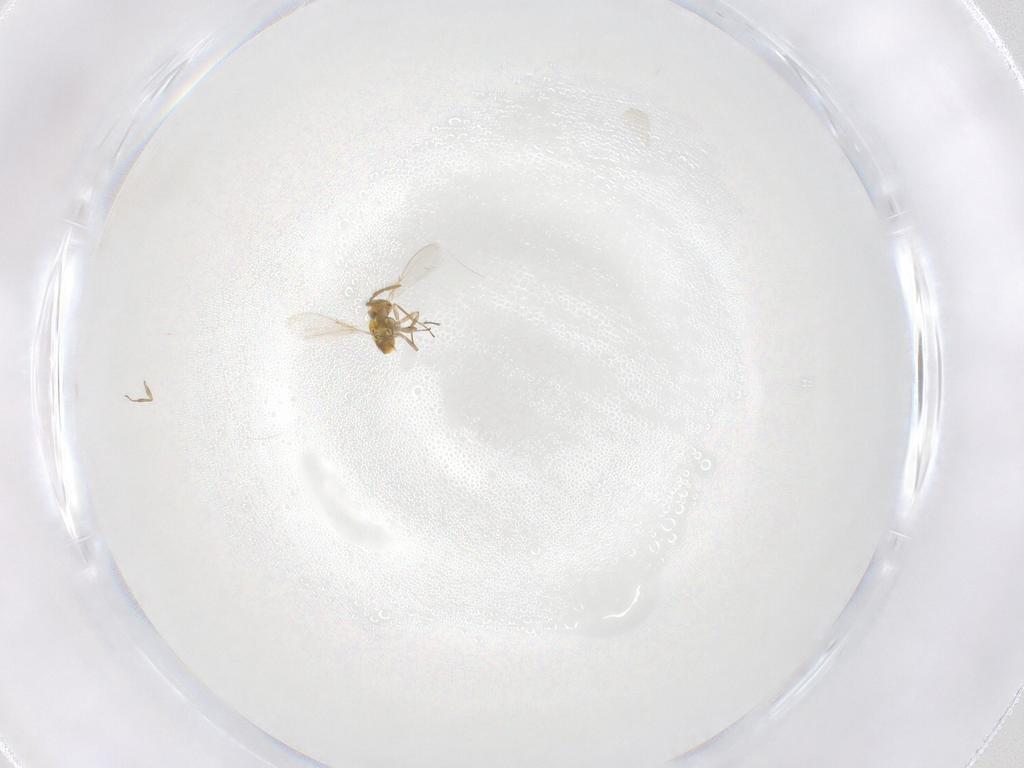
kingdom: Animalia
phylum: Arthropoda
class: Insecta
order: Hymenoptera
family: Aphelinidae
